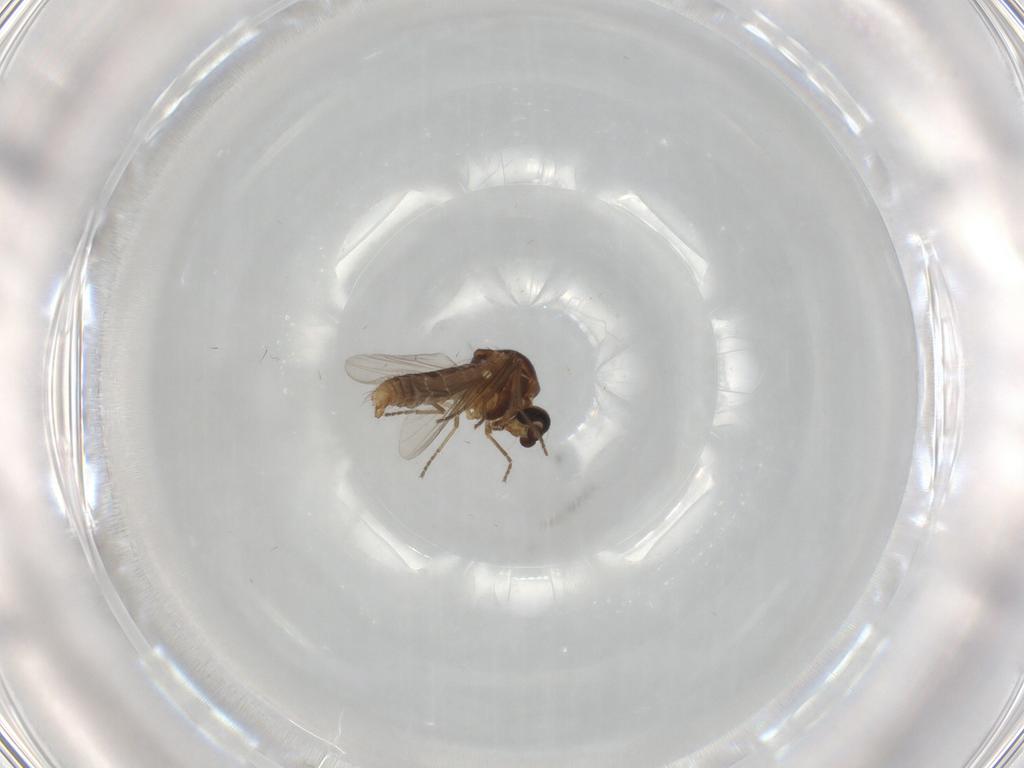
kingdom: Animalia
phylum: Arthropoda
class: Insecta
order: Diptera
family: Ceratopogonidae
